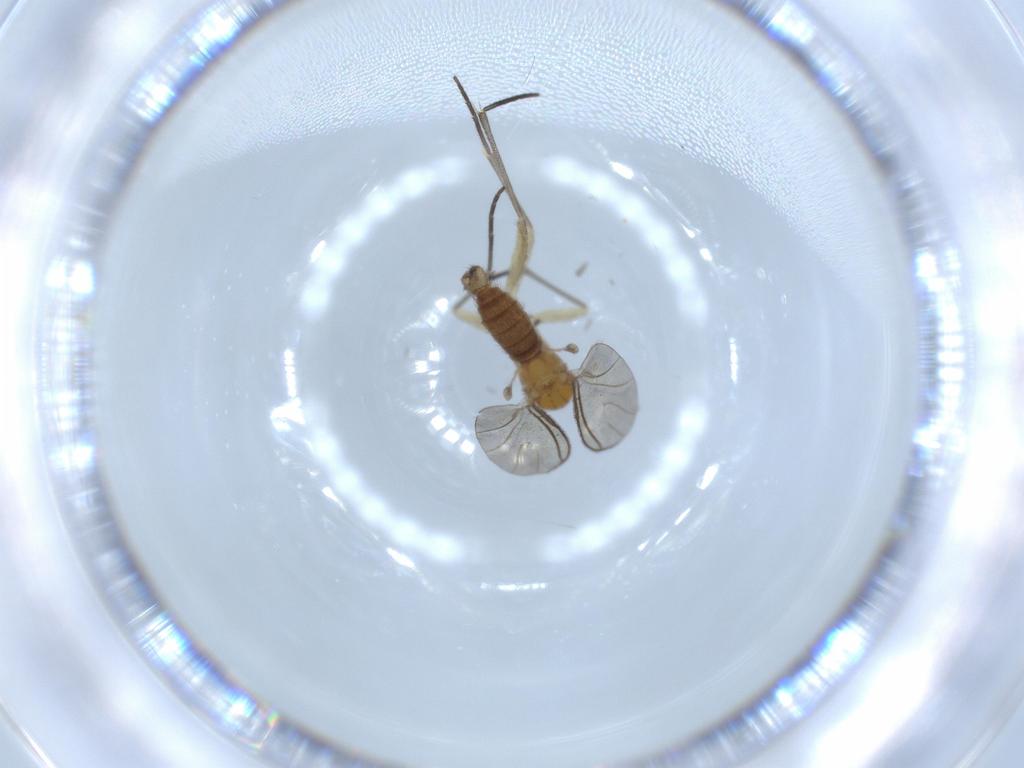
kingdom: Animalia
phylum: Arthropoda
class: Insecta
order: Diptera
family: Sciaridae
